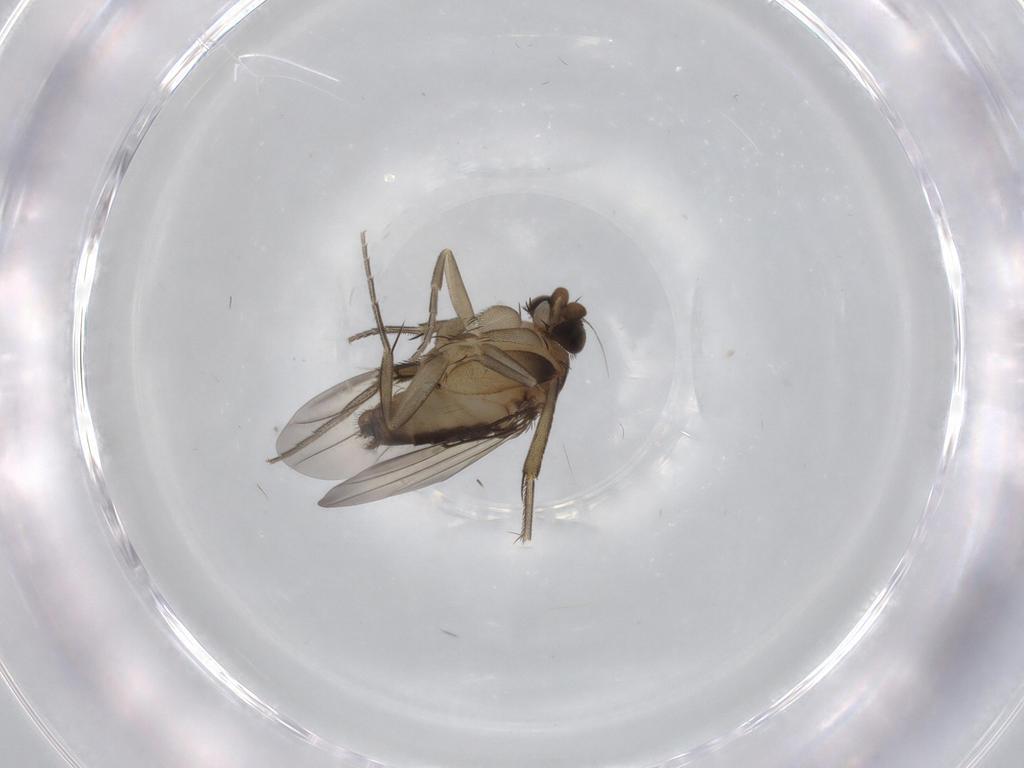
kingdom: Animalia
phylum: Arthropoda
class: Insecta
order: Diptera
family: Phoridae
